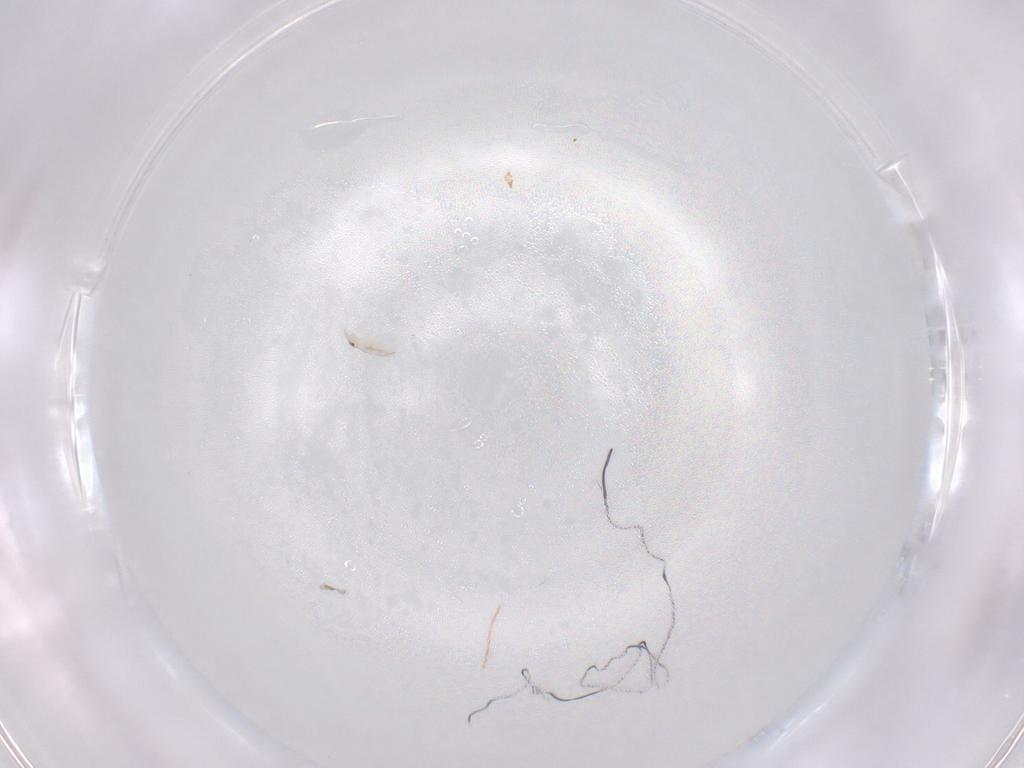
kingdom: Animalia
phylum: Arthropoda
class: Collembola
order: Poduromorpha
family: Hypogastruridae
